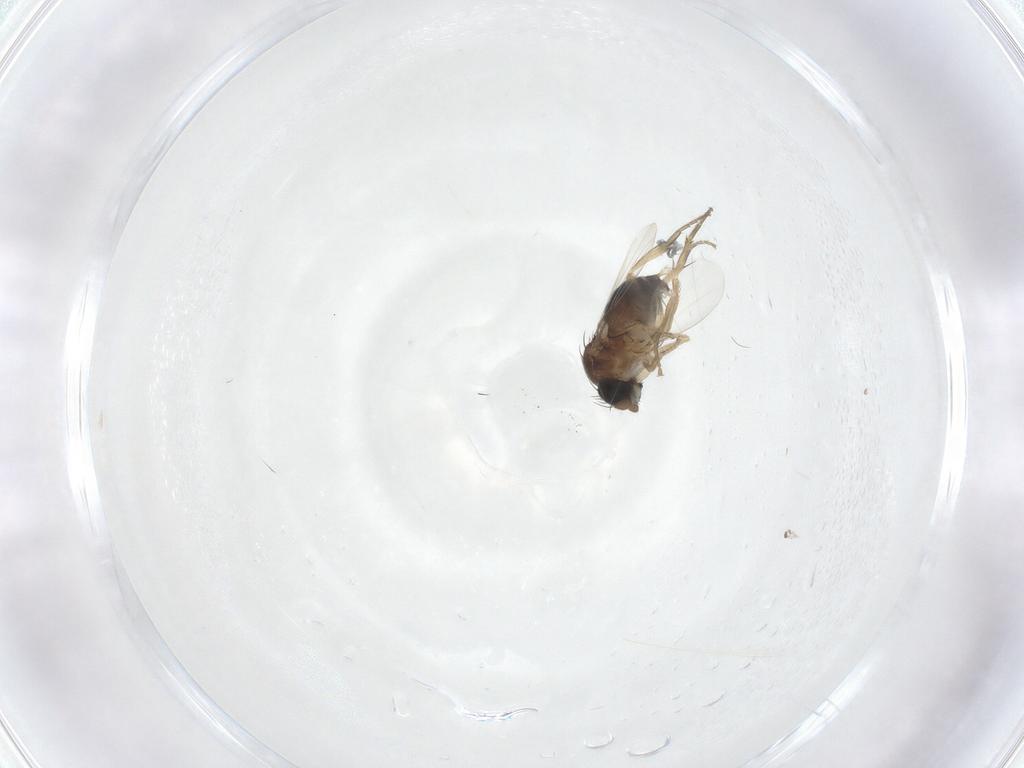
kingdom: Animalia
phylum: Arthropoda
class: Insecta
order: Diptera
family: Phoridae
